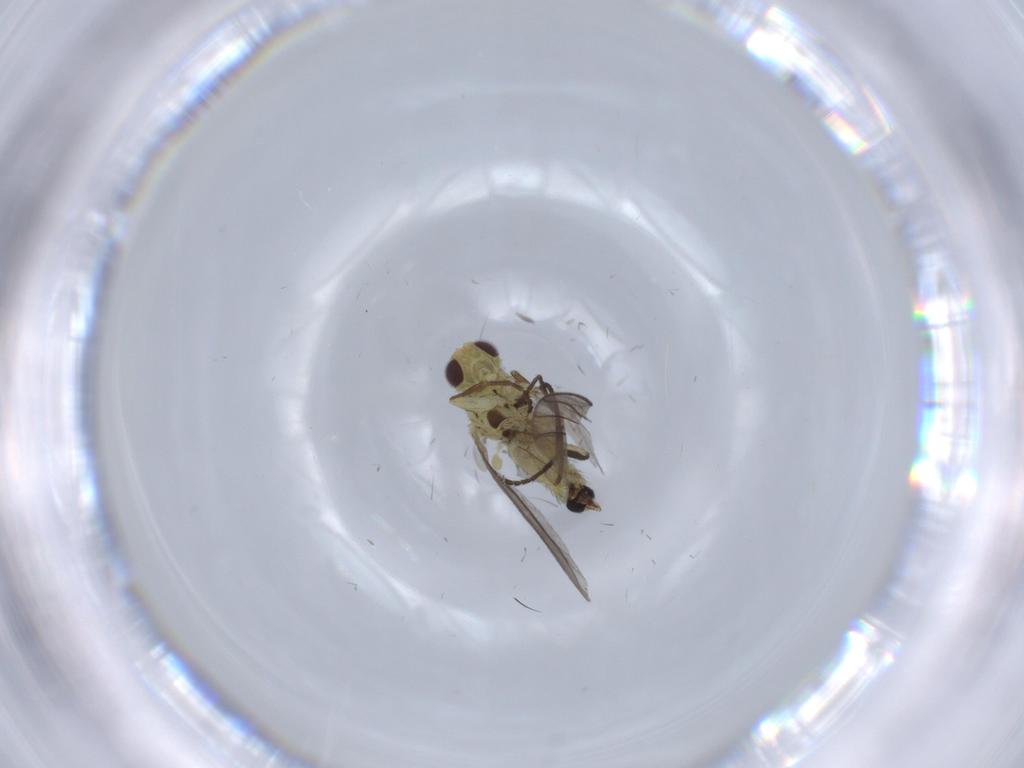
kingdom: Animalia
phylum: Arthropoda
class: Insecta
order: Diptera
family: Agromyzidae
